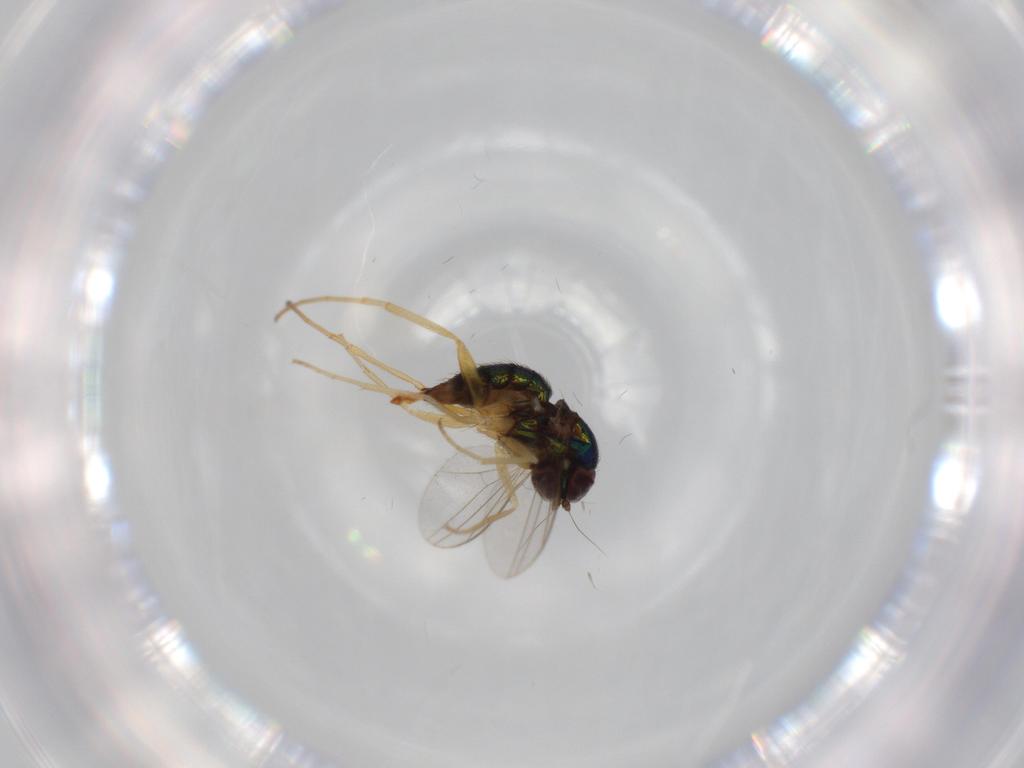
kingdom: Animalia
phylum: Arthropoda
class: Insecta
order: Diptera
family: Dolichopodidae
